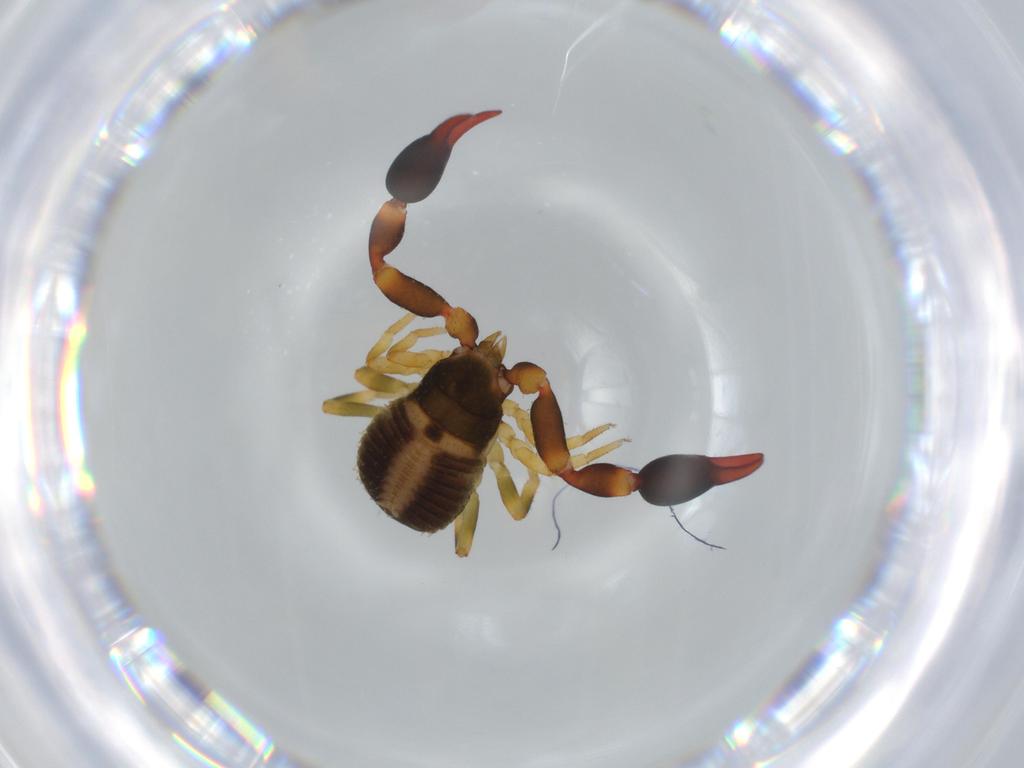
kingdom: Animalia
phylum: Arthropoda
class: Arachnida
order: Pseudoscorpiones
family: Chernetidae
